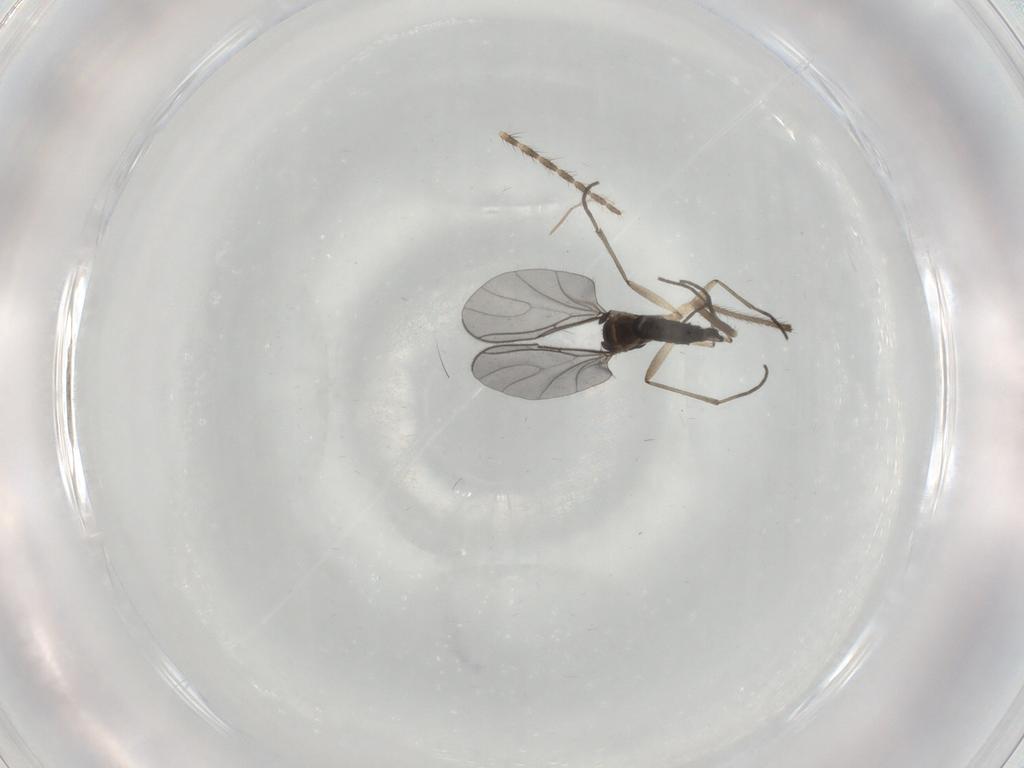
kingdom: Animalia
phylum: Arthropoda
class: Insecta
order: Diptera
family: Sciaridae
